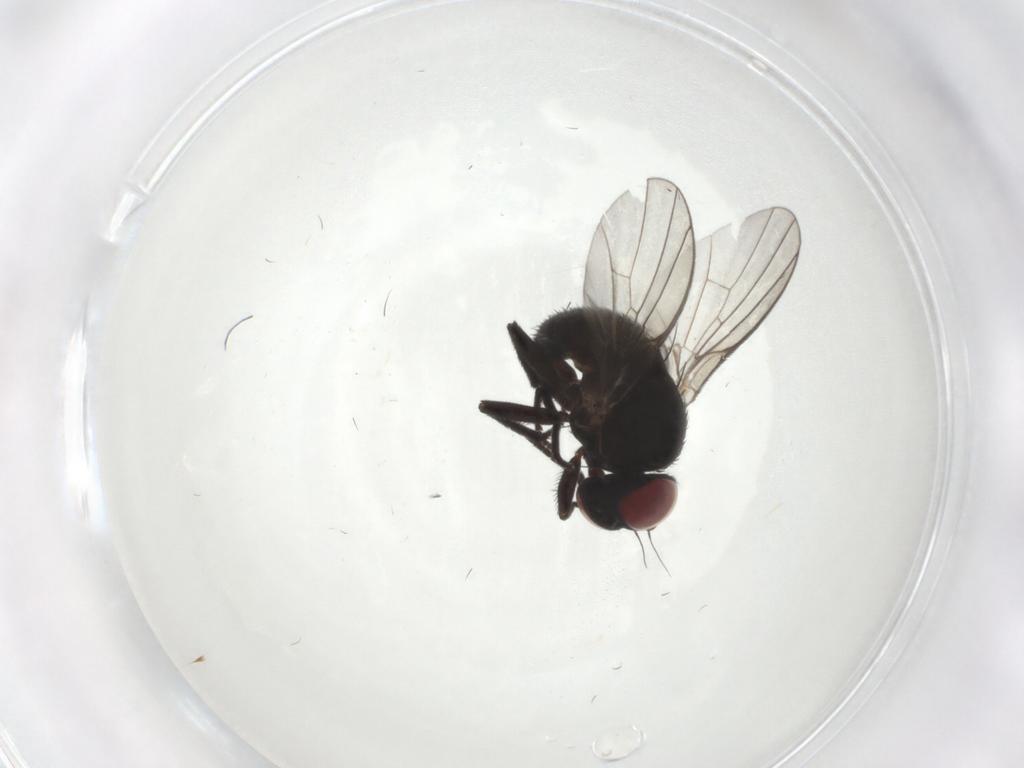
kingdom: Animalia
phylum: Arthropoda
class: Insecta
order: Diptera
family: Agromyzidae
